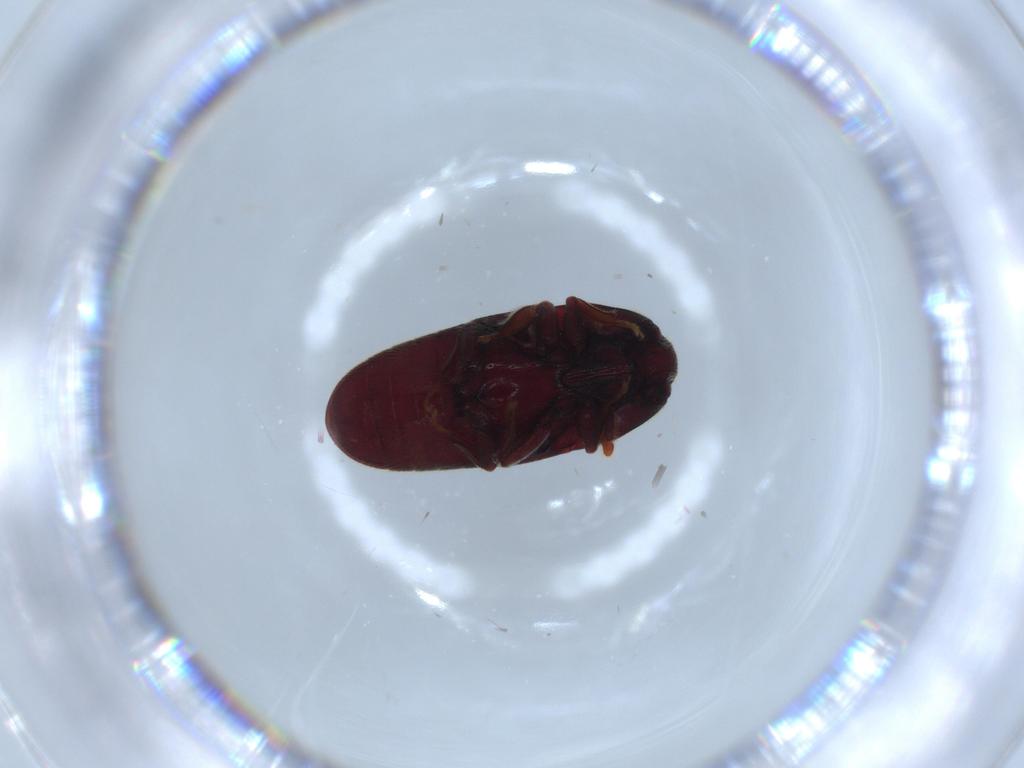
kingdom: Animalia
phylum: Arthropoda
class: Insecta
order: Coleoptera
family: Throscidae
